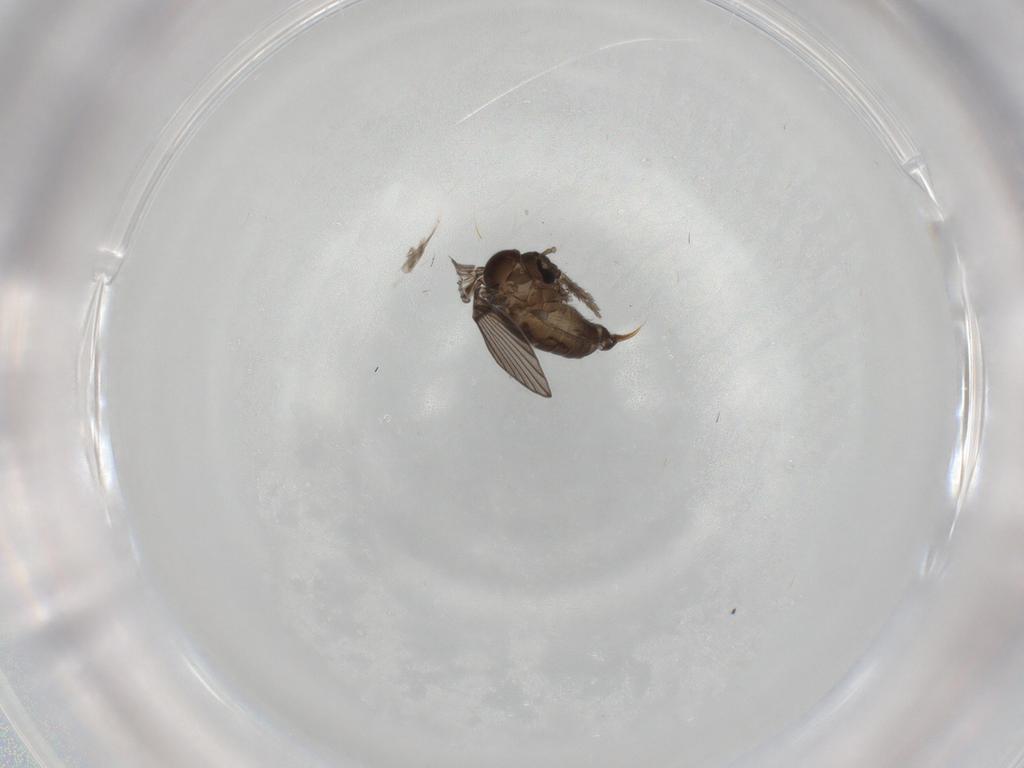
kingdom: Animalia
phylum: Arthropoda
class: Insecta
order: Diptera
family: Psychodidae
